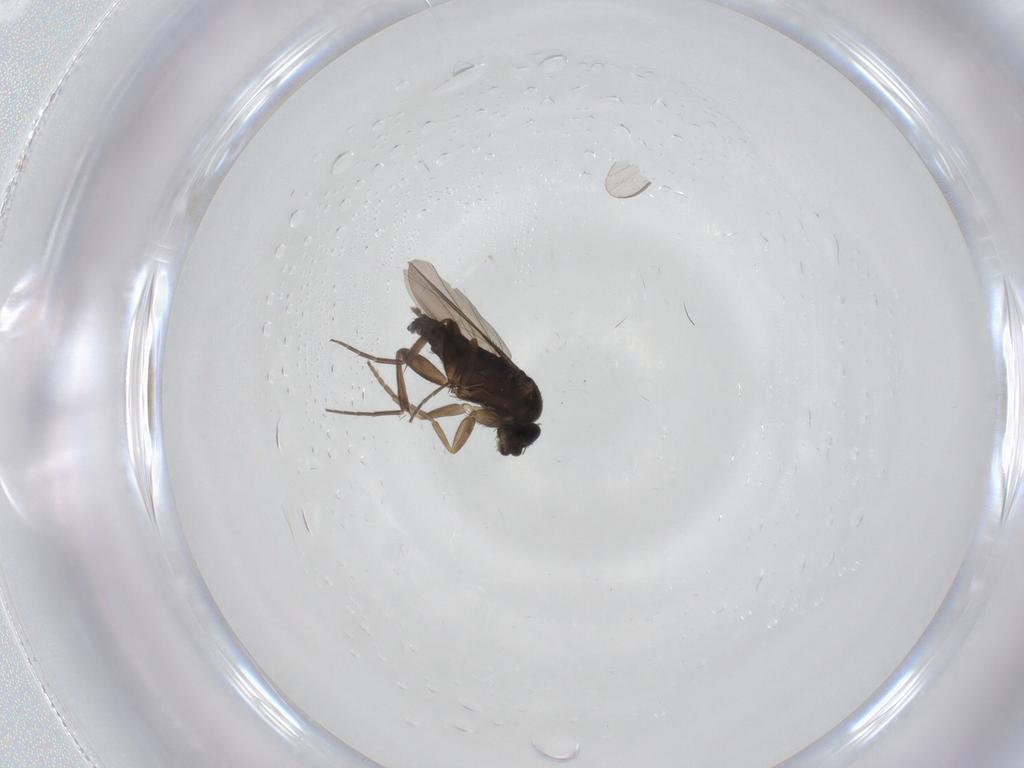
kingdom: Animalia
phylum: Arthropoda
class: Insecta
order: Diptera
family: Phoridae
